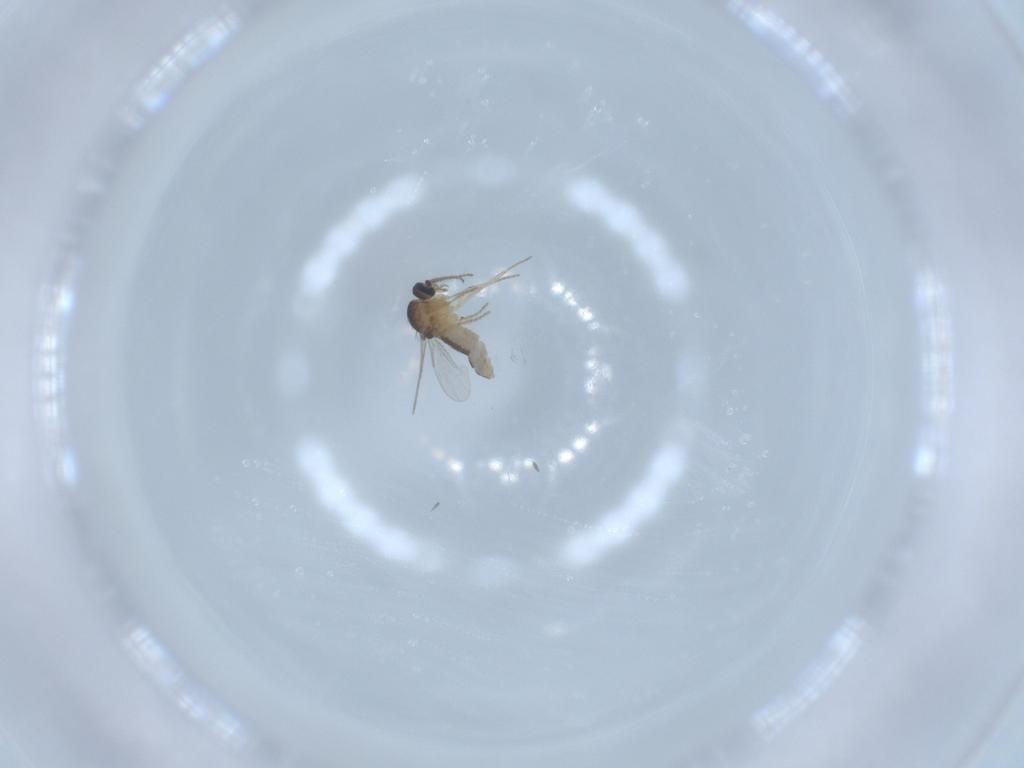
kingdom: Animalia
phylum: Arthropoda
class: Insecta
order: Diptera
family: Ceratopogonidae
